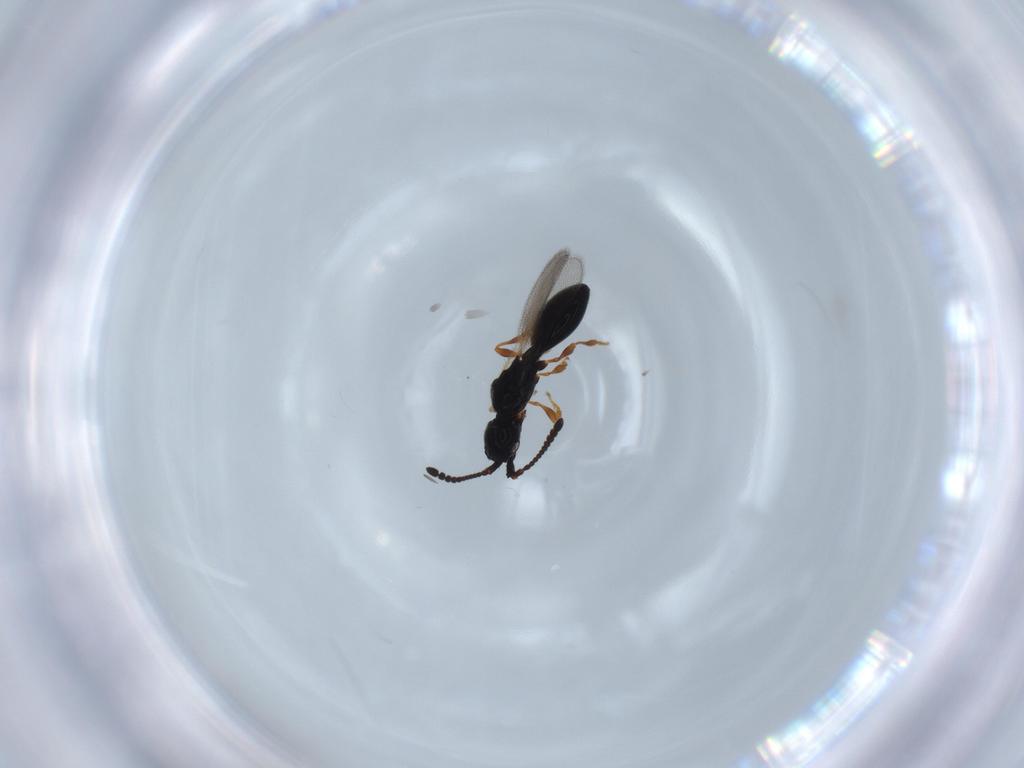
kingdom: Animalia
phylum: Arthropoda
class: Insecta
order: Hymenoptera
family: Diapriidae
